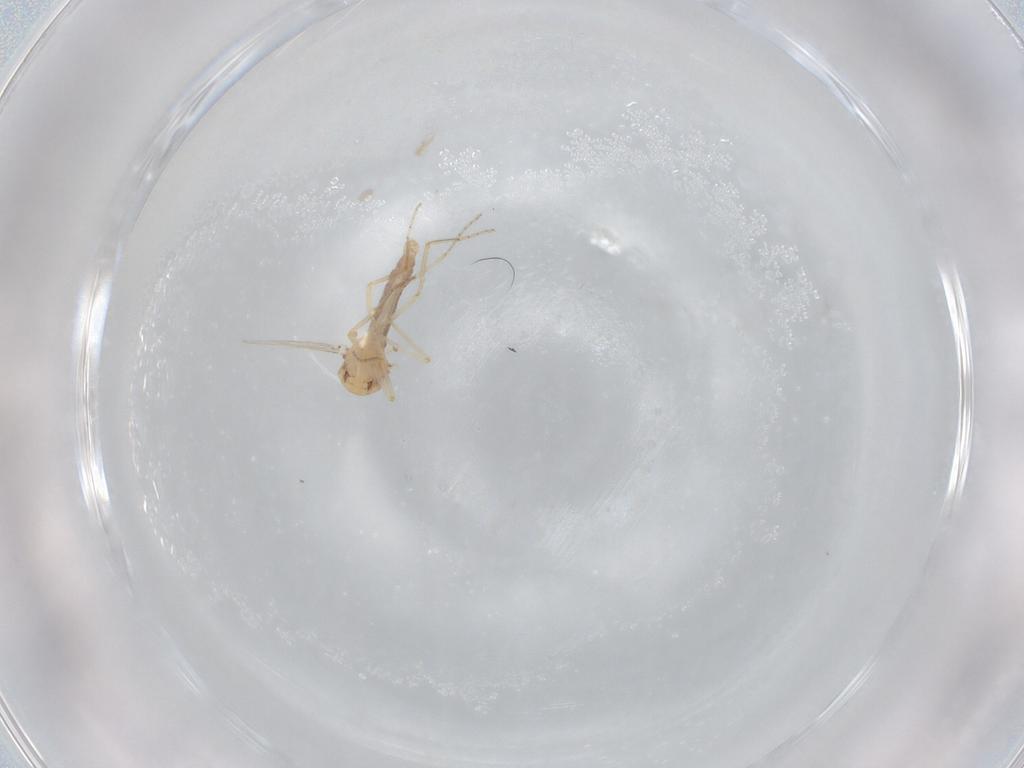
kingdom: Animalia
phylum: Arthropoda
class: Insecta
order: Diptera
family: Ceratopogonidae
